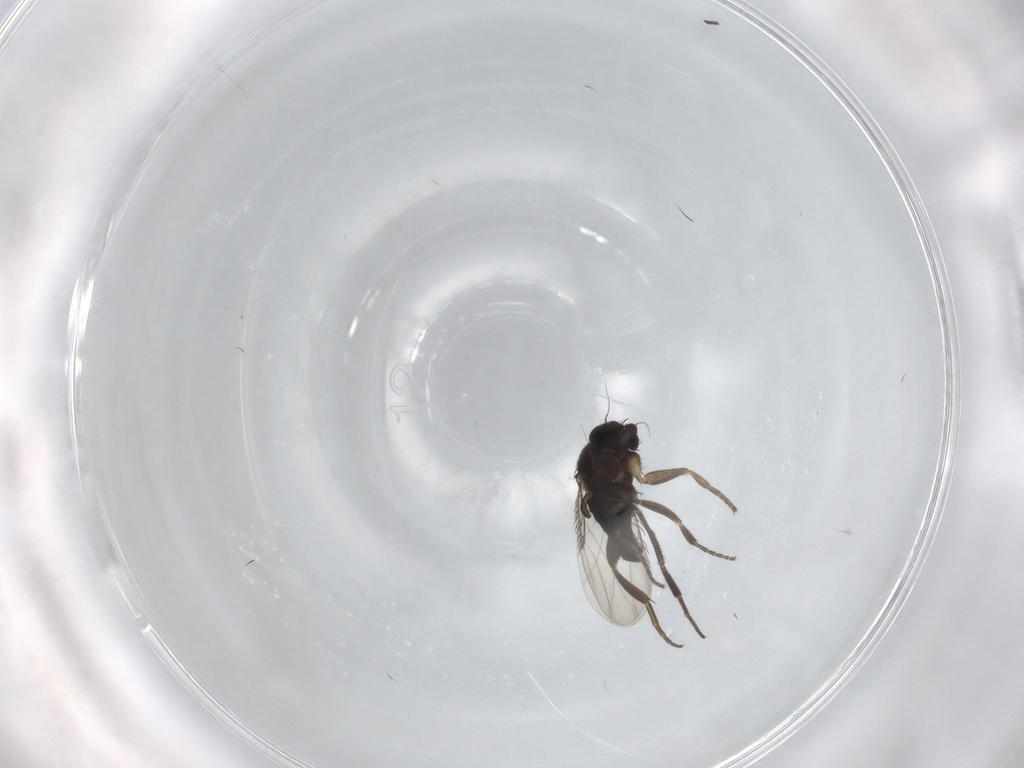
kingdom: Animalia
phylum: Arthropoda
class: Insecta
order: Diptera
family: Phoridae
